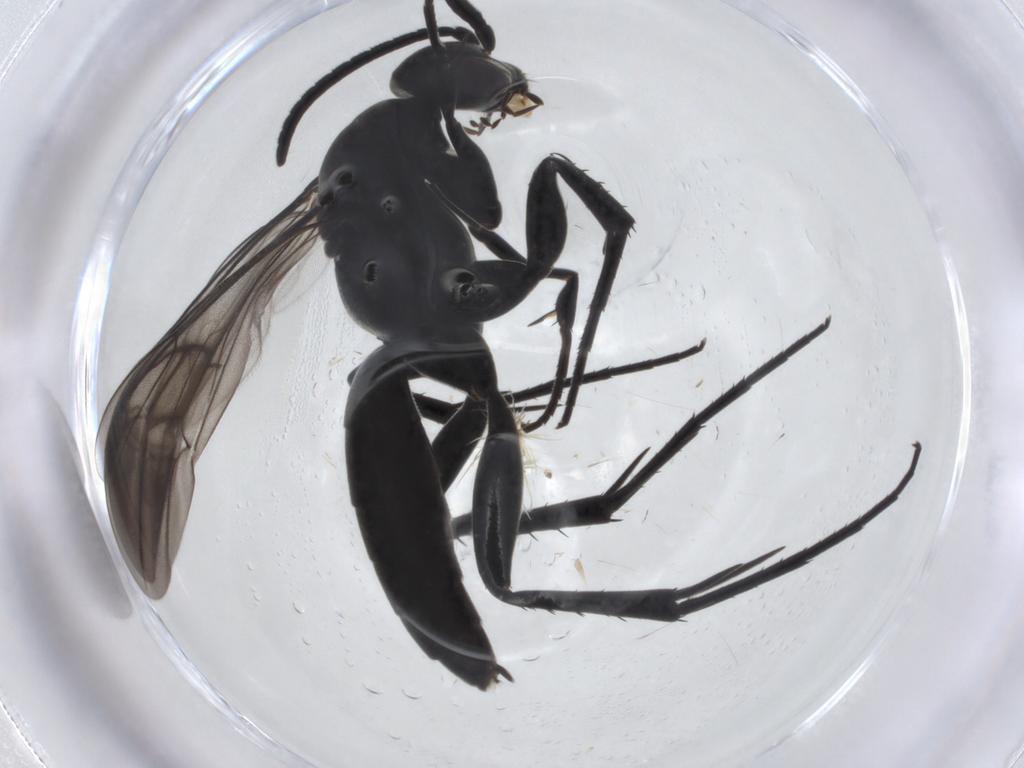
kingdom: Animalia
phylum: Arthropoda
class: Insecta
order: Hymenoptera
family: Pompilidae
